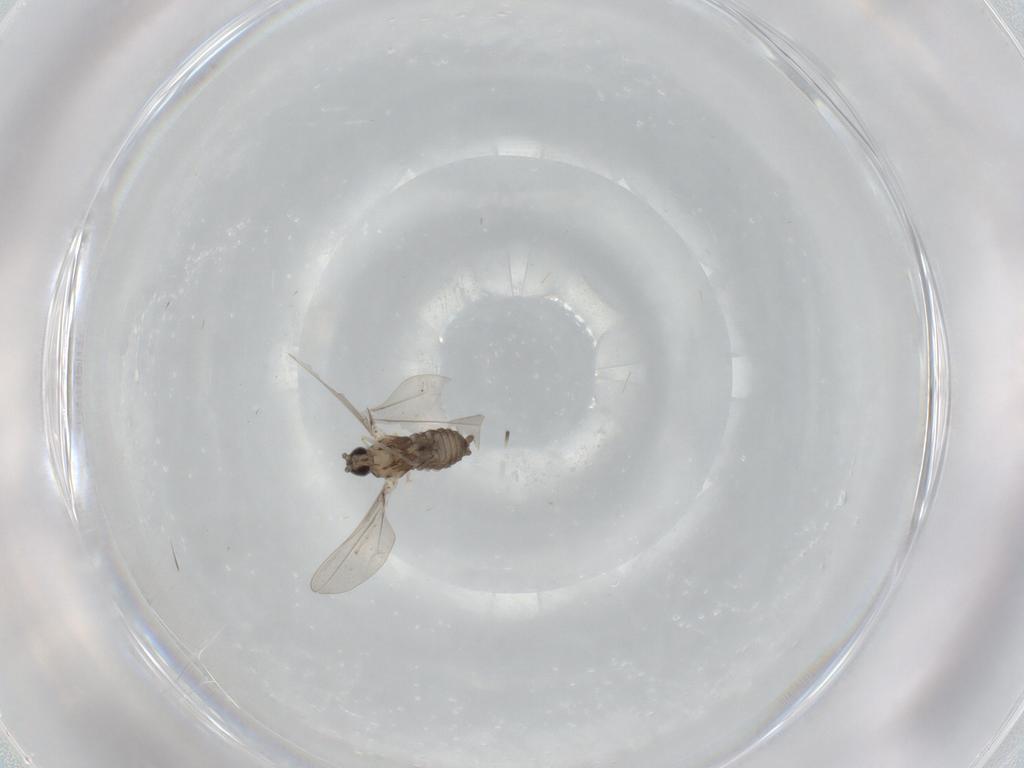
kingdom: Animalia
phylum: Arthropoda
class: Insecta
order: Diptera
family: Cecidomyiidae
